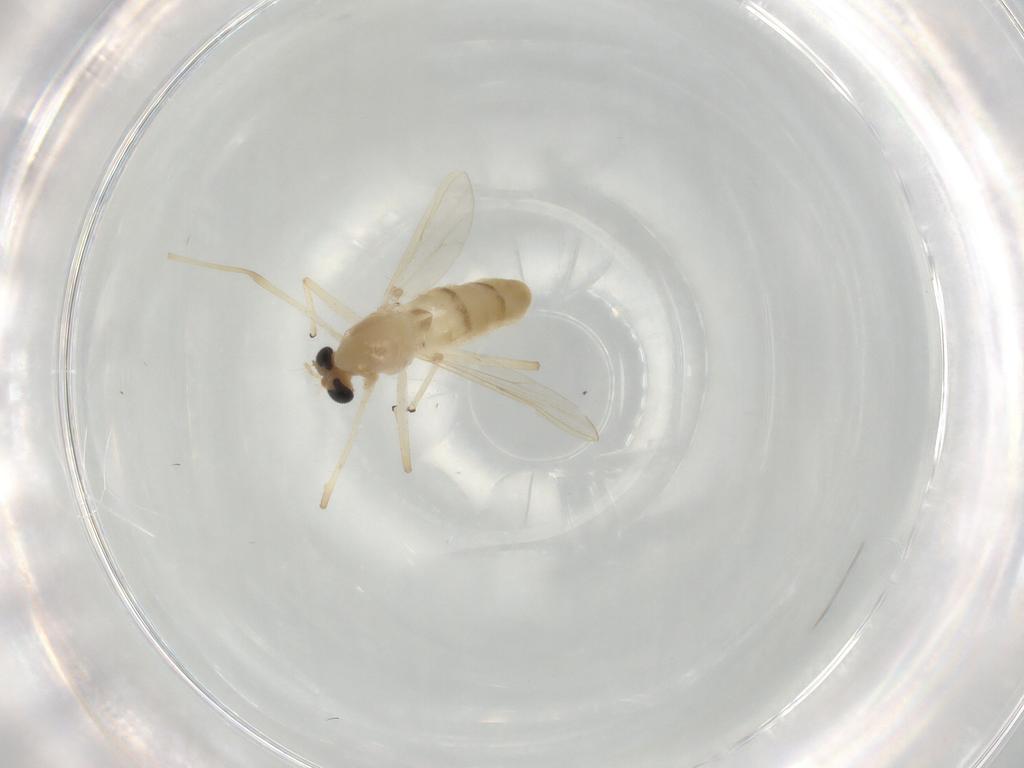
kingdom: Animalia
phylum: Arthropoda
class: Insecta
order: Diptera
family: Chironomidae
